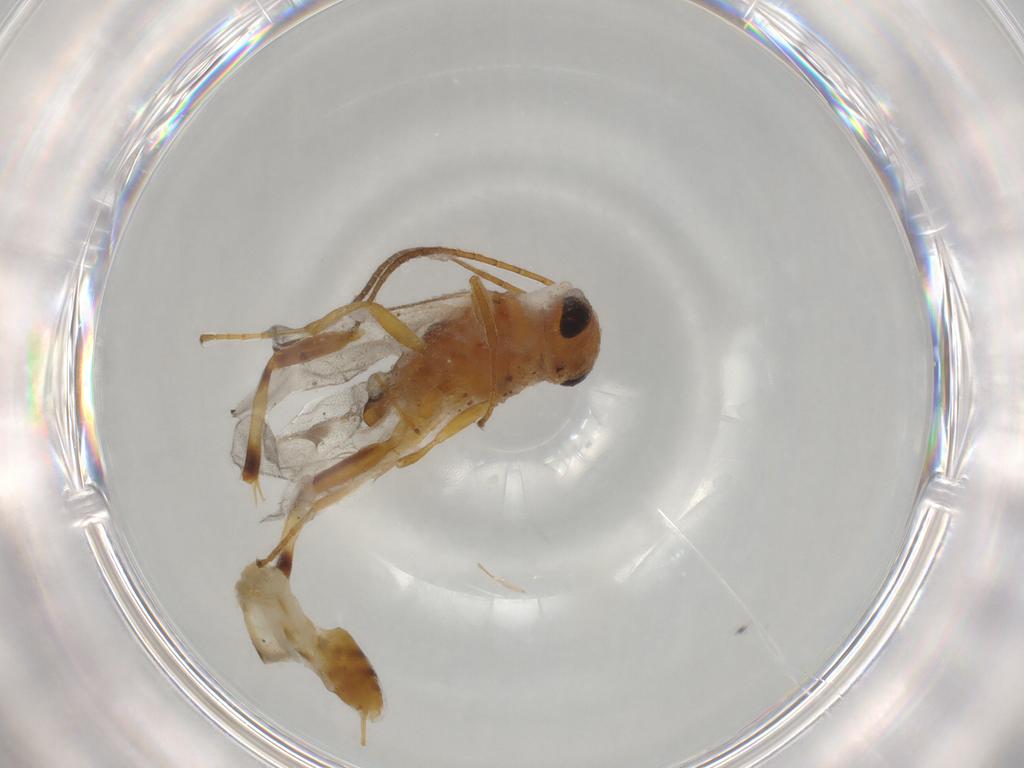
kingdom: Animalia
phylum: Arthropoda
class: Insecta
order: Hymenoptera
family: Ichneumonidae
